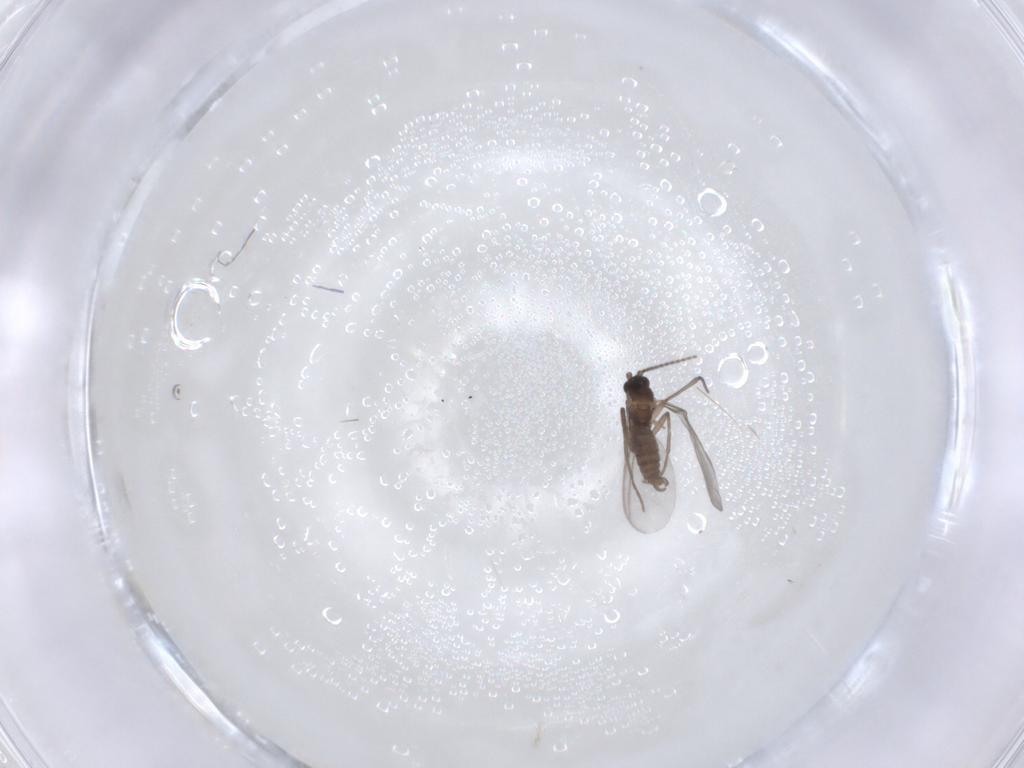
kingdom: Animalia
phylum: Arthropoda
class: Insecta
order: Diptera
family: Sciaridae
